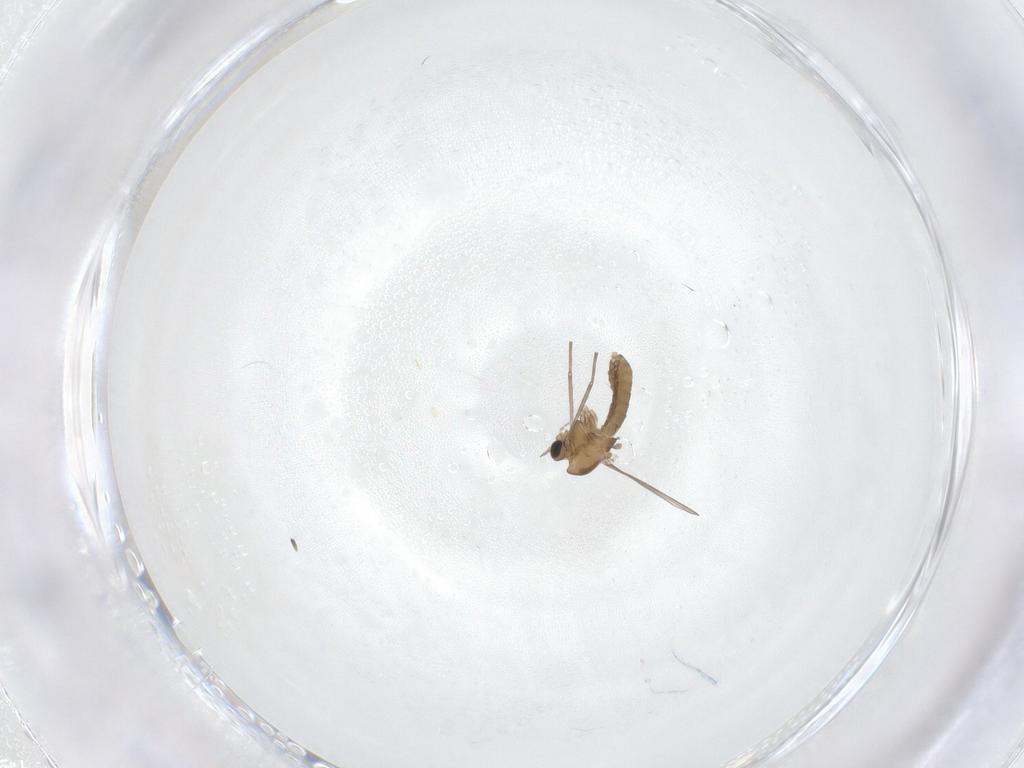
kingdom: Animalia
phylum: Arthropoda
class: Insecta
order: Diptera
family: Chironomidae
